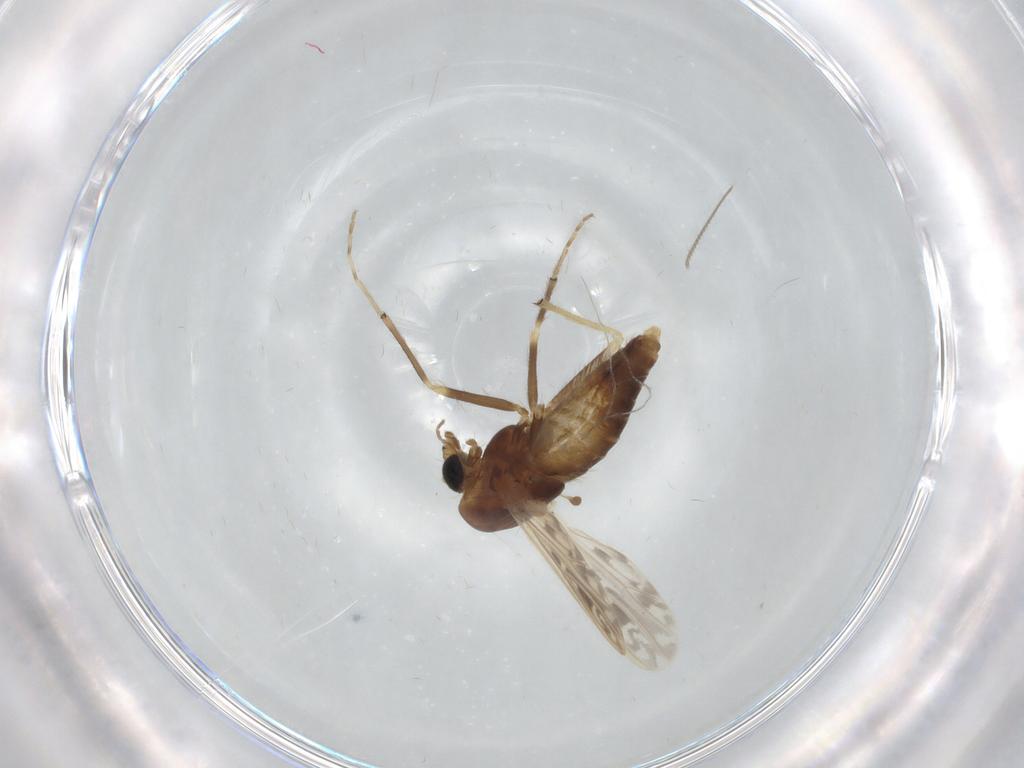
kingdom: Animalia
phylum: Arthropoda
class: Insecta
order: Diptera
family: Chironomidae
